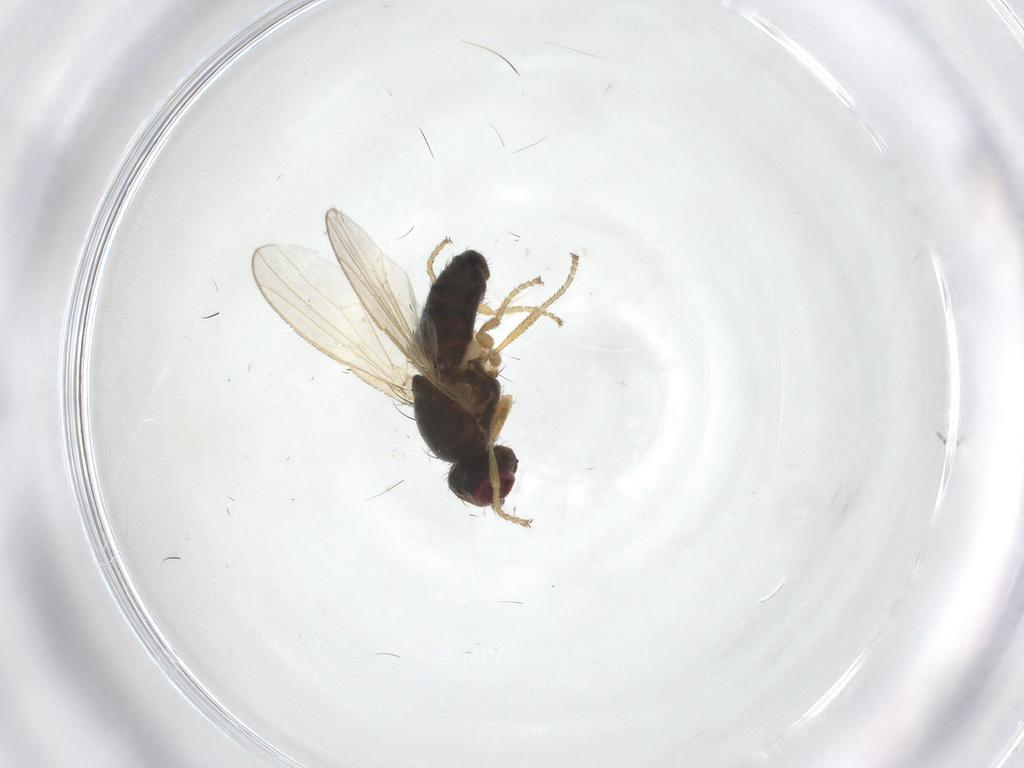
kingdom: Animalia
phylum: Arthropoda
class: Insecta
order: Diptera
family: Heleomyzidae
